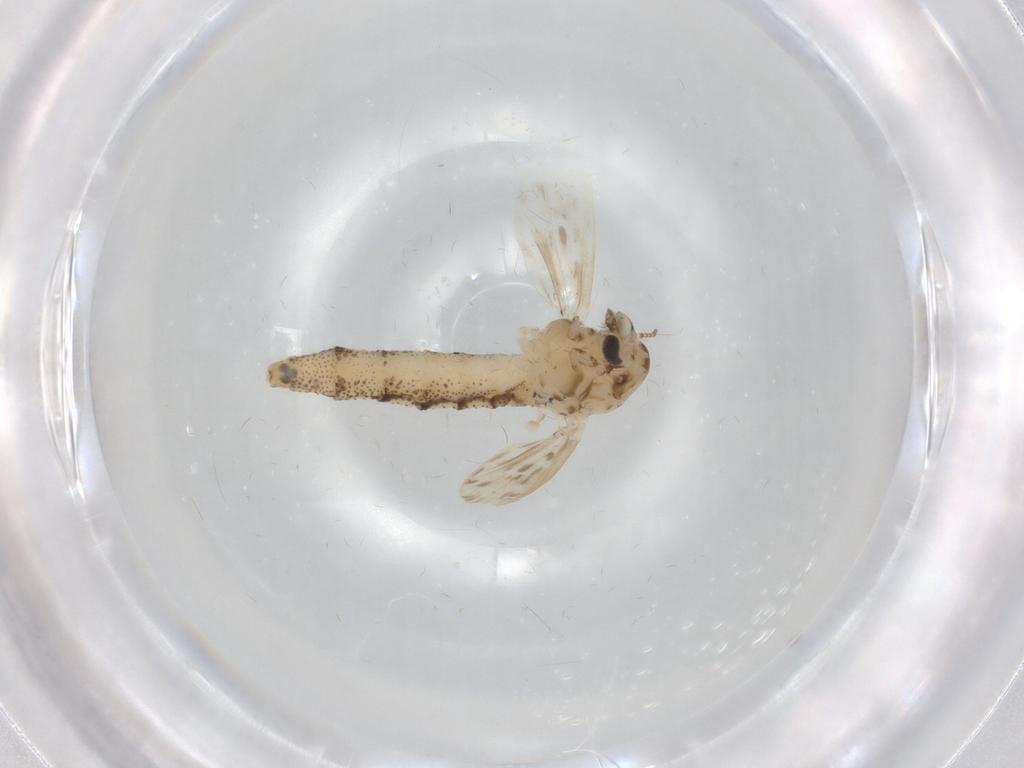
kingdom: Animalia
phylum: Arthropoda
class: Insecta
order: Diptera
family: Chaoboridae
